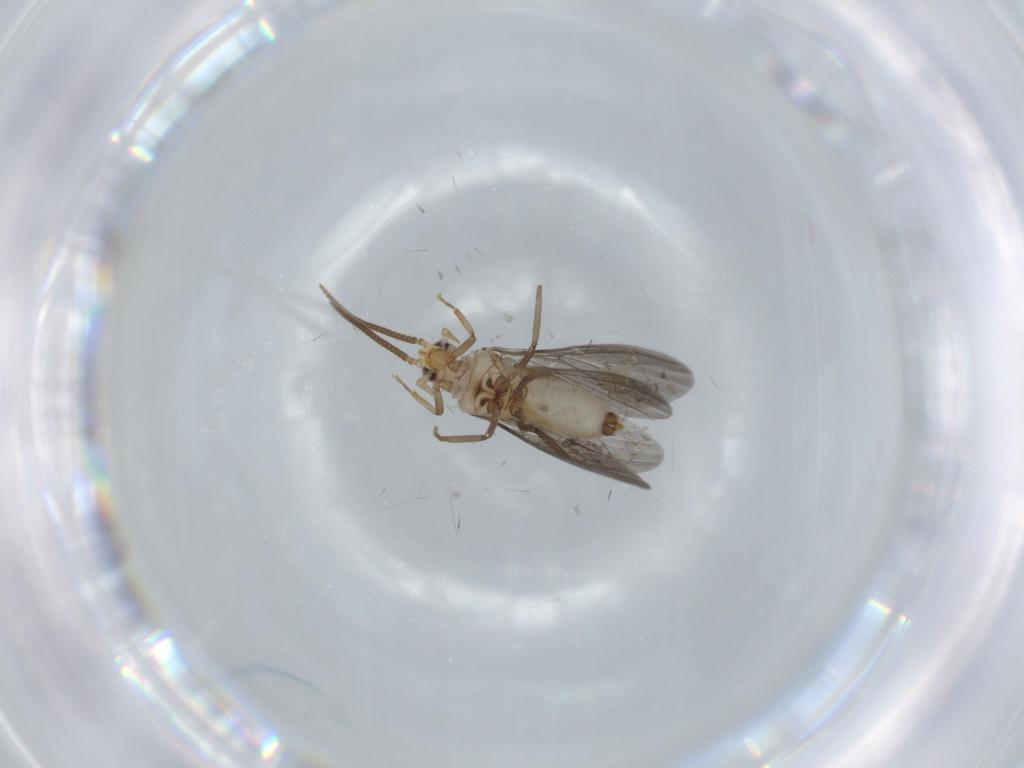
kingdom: Animalia
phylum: Arthropoda
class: Insecta
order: Neuroptera
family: Coniopterygidae
